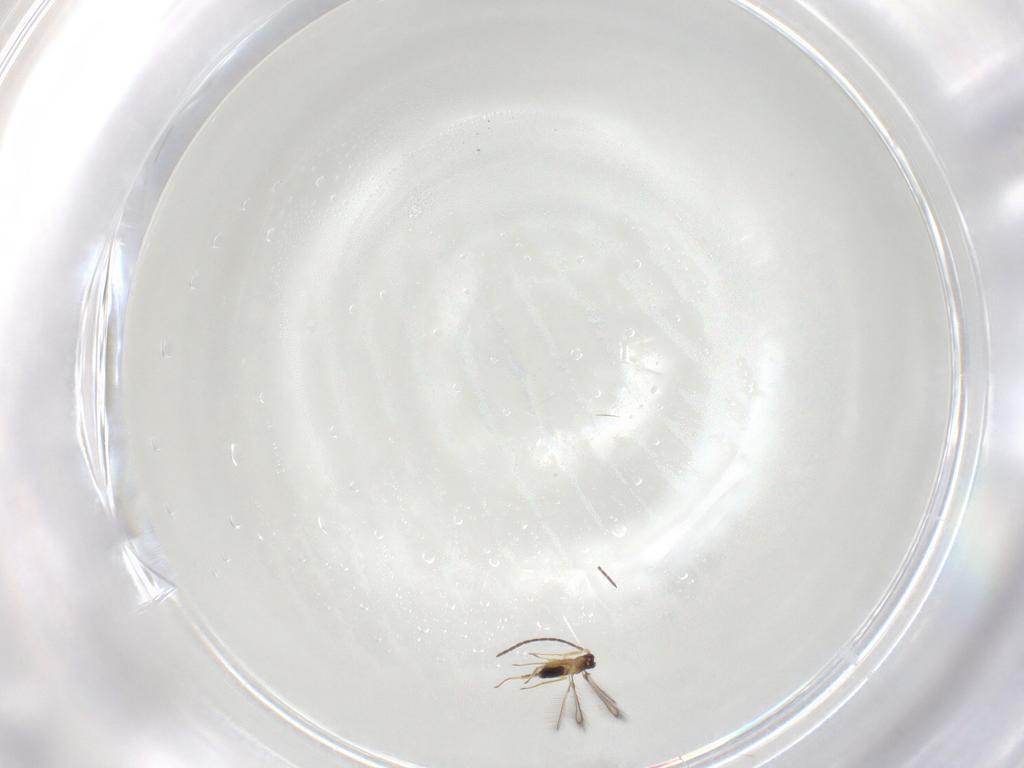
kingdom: Animalia
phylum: Arthropoda
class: Insecta
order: Hymenoptera
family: Mymaridae
